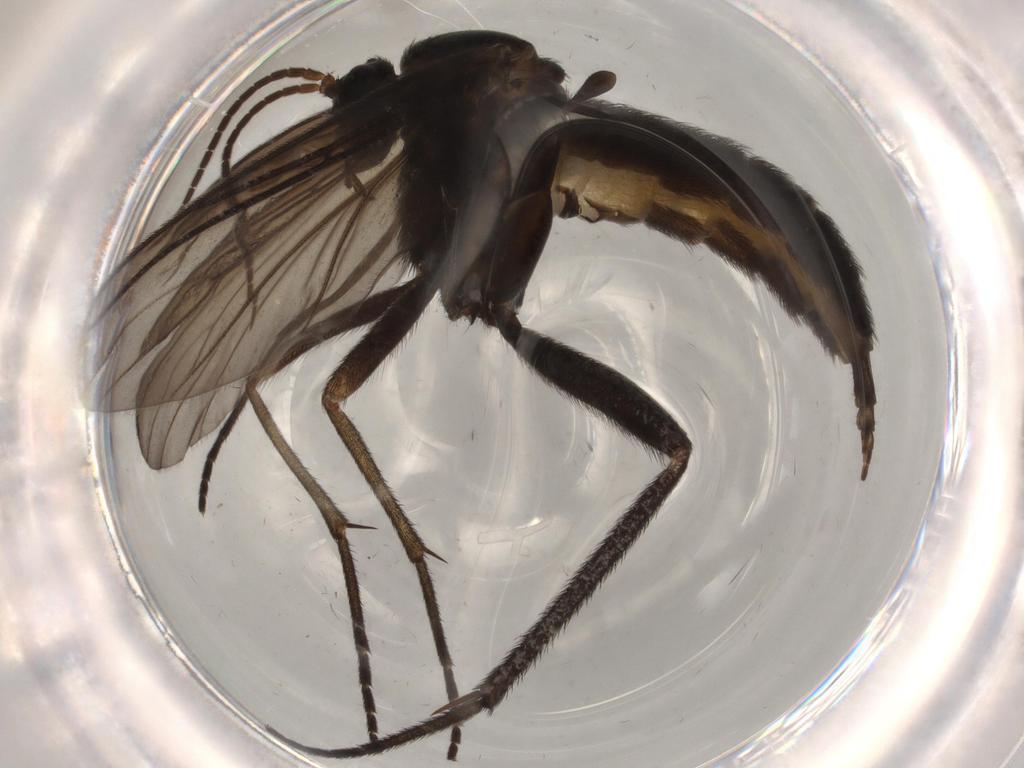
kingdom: Animalia
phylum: Arthropoda
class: Insecta
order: Diptera
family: Sciaridae
